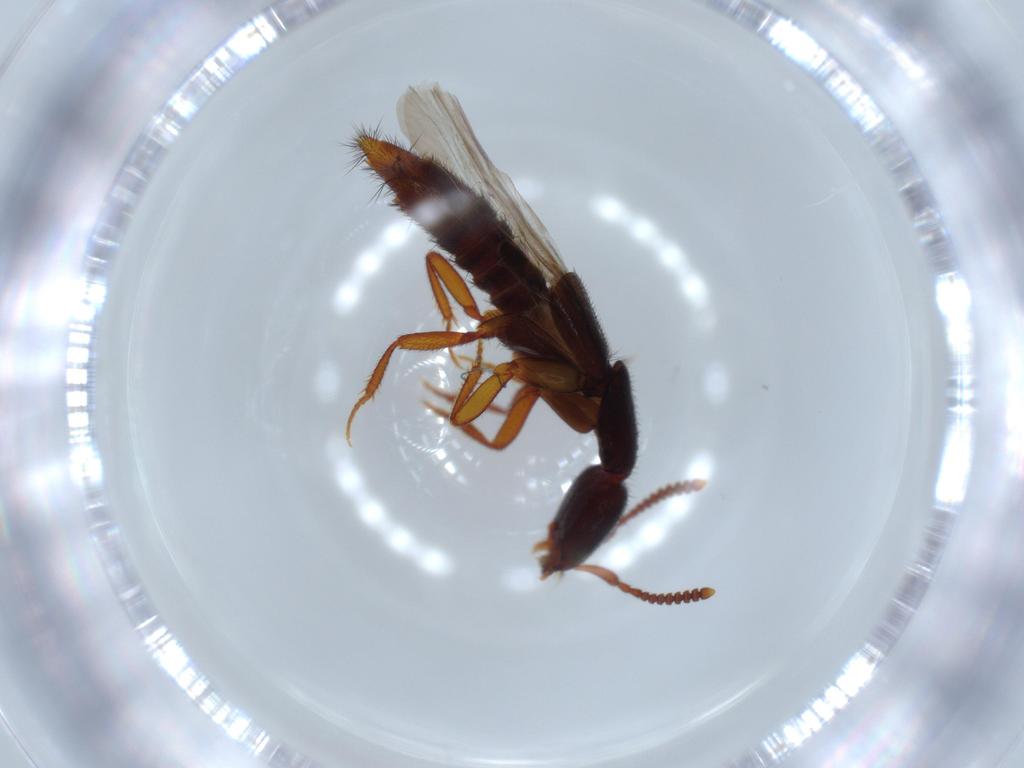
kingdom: Animalia
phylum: Arthropoda
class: Insecta
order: Coleoptera
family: Staphylinidae
